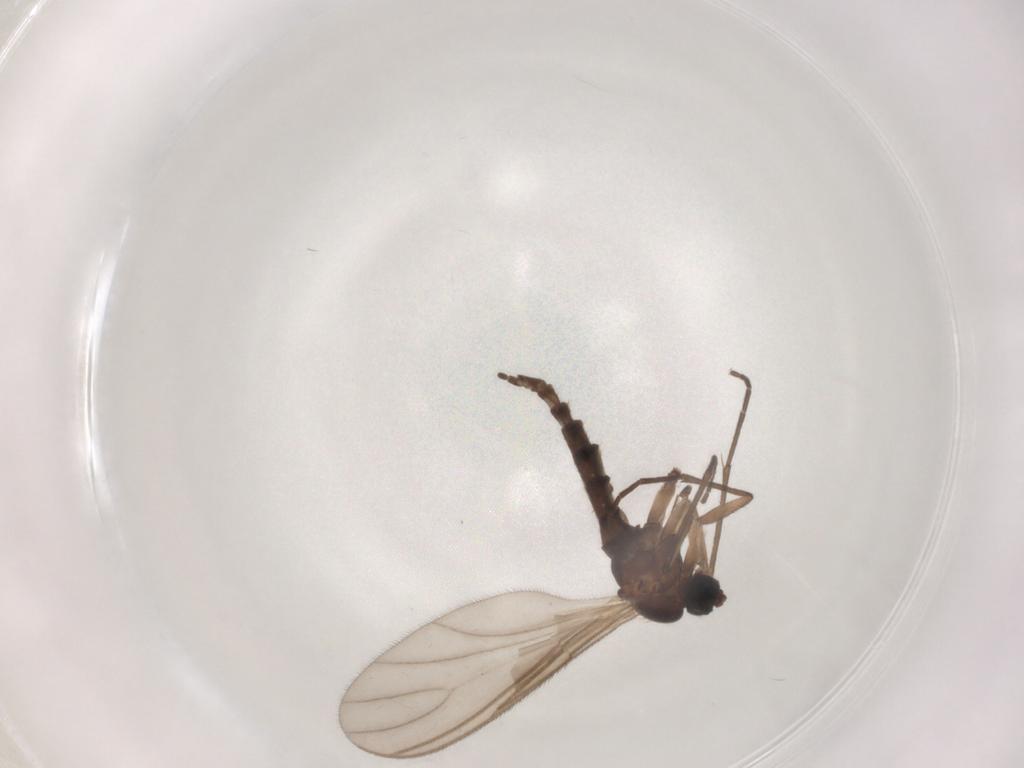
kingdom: Animalia
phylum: Arthropoda
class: Insecta
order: Diptera
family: Sciaridae
